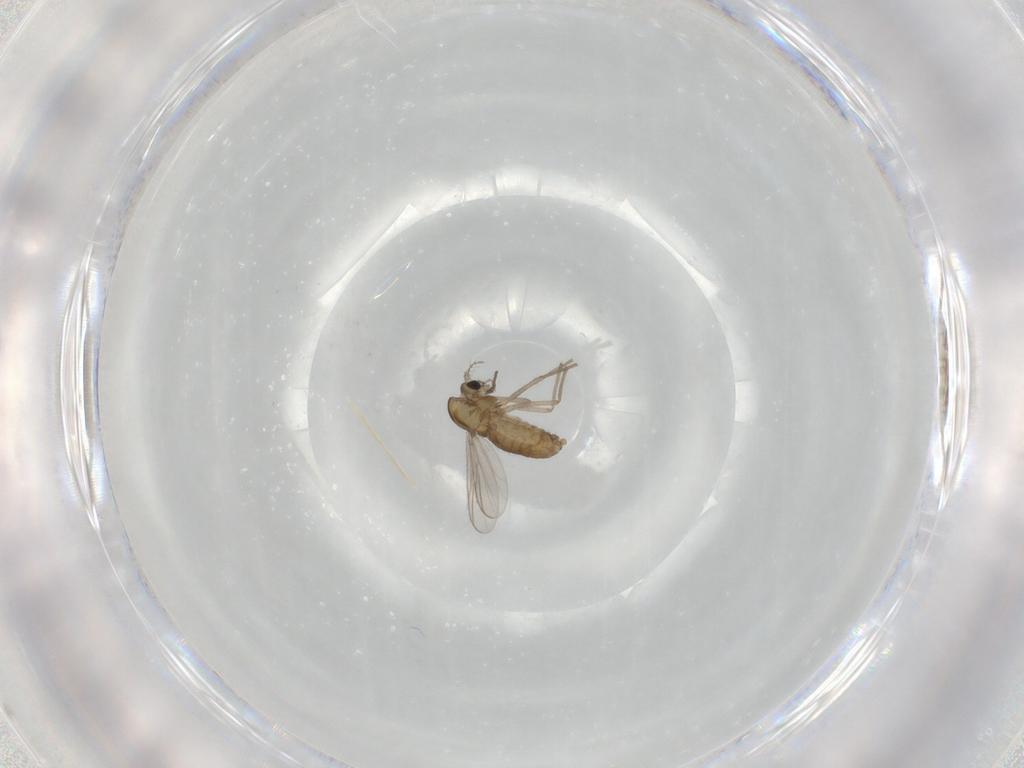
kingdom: Animalia
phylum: Arthropoda
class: Insecta
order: Diptera
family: Chironomidae
